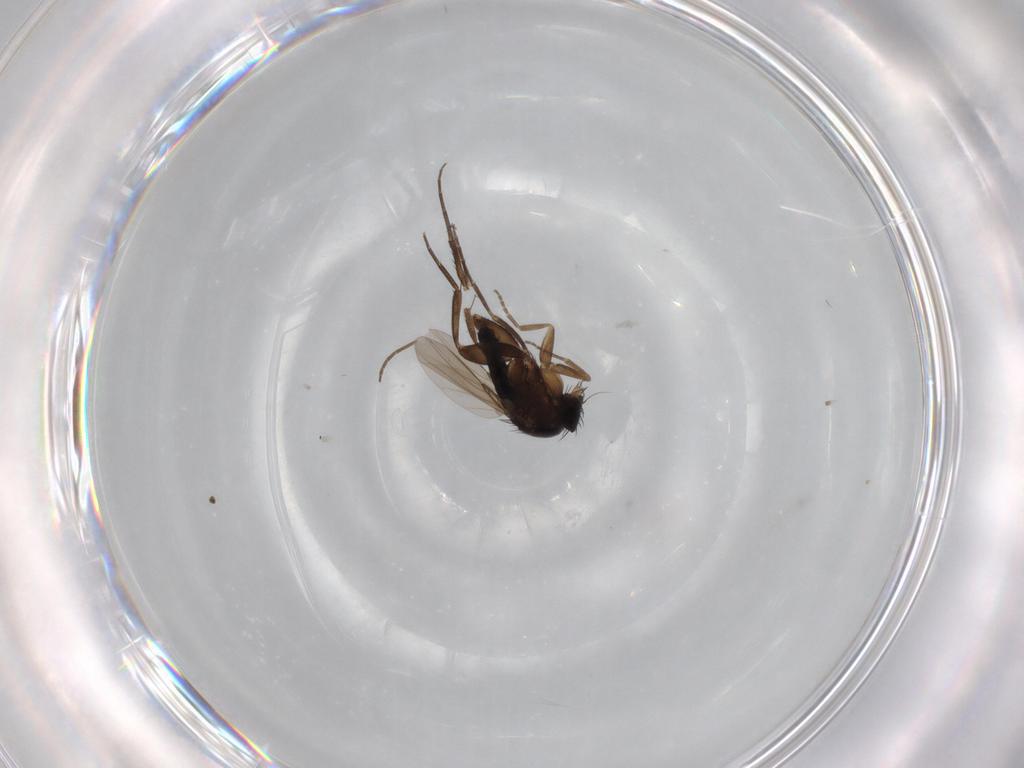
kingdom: Animalia
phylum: Arthropoda
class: Insecta
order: Diptera
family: Phoridae
